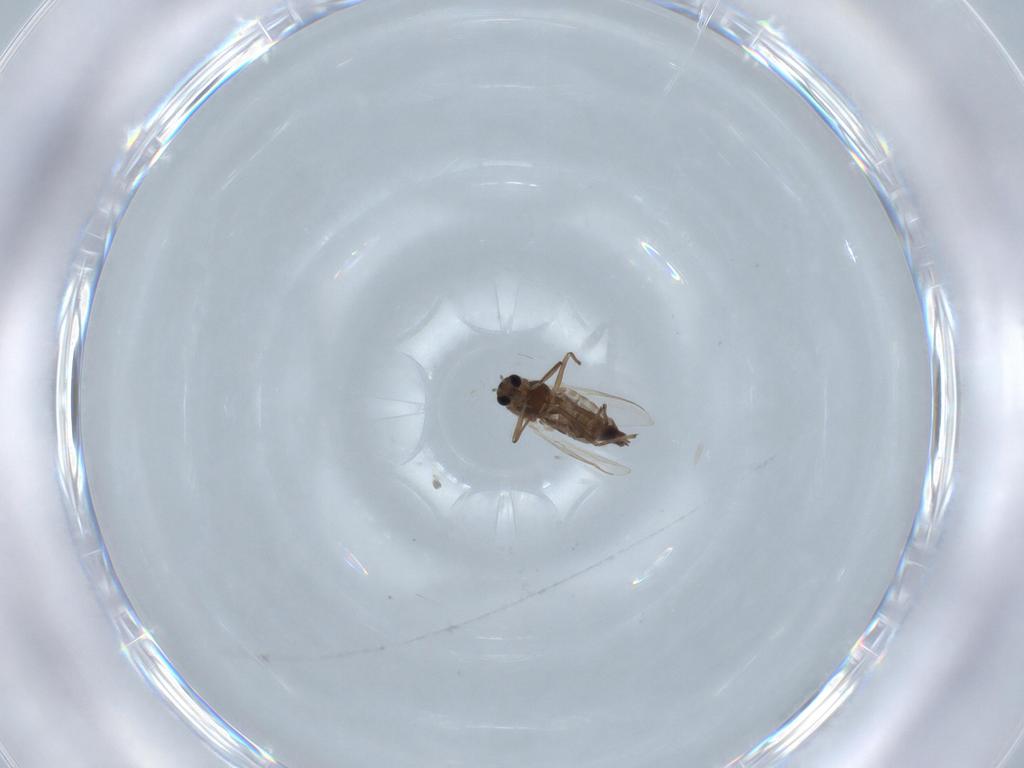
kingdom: Animalia
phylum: Arthropoda
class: Insecta
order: Diptera
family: Chironomidae
